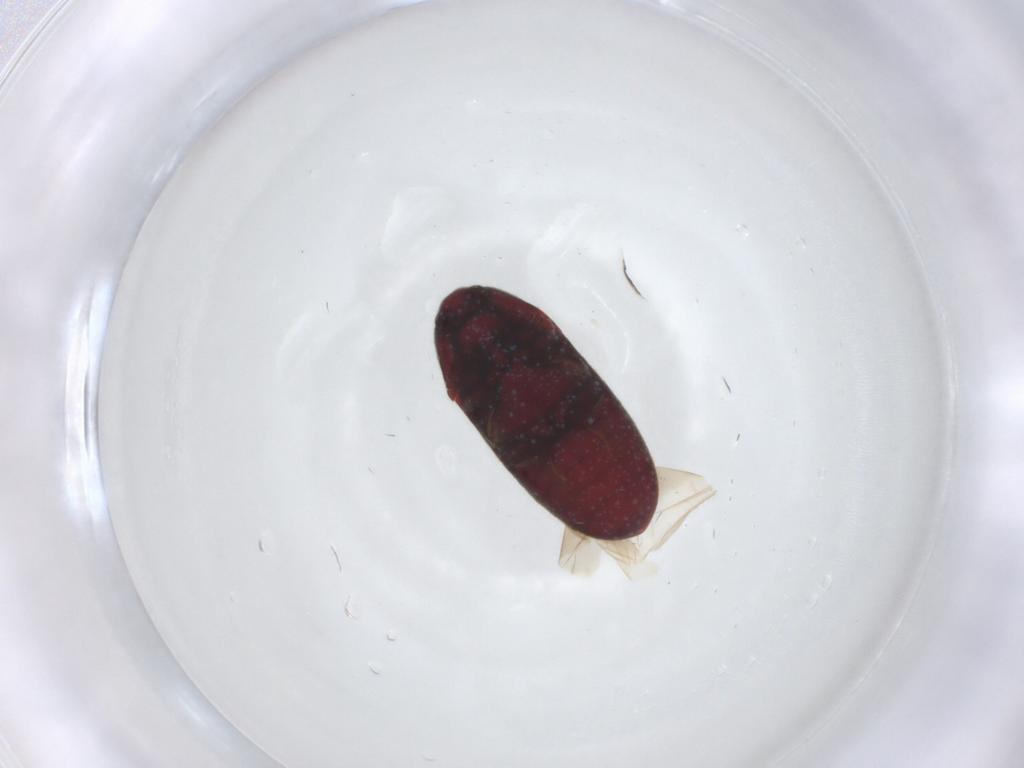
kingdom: Animalia
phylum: Arthropoda
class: Insecta
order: Coleoptera
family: Throscidae
